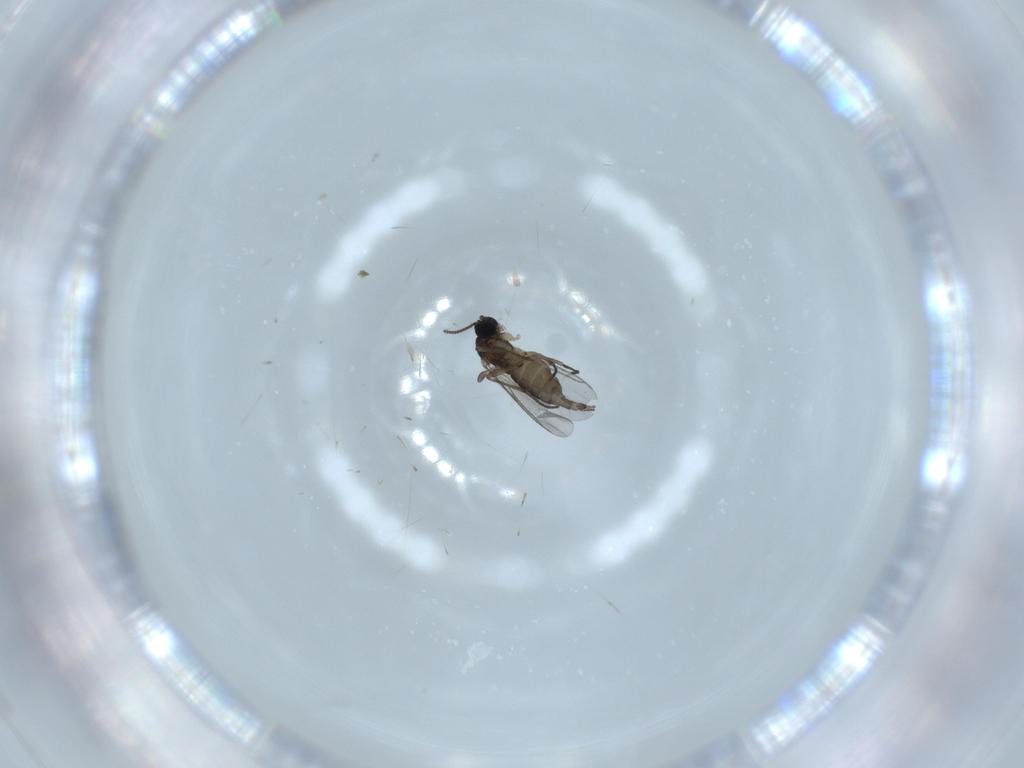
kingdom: Animalia
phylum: Arthropoda
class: Insecta
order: Diptera
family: Sciaridae
